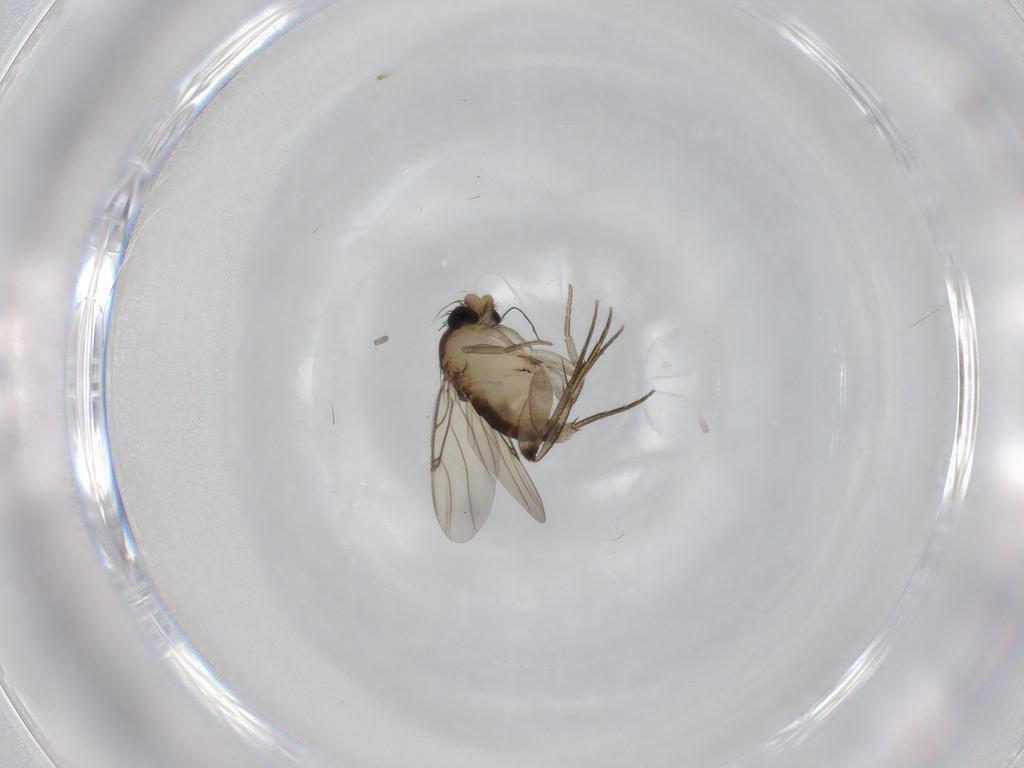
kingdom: Animalia
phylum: Arthropoda
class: Insecta
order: Diptera
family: Phoridae
